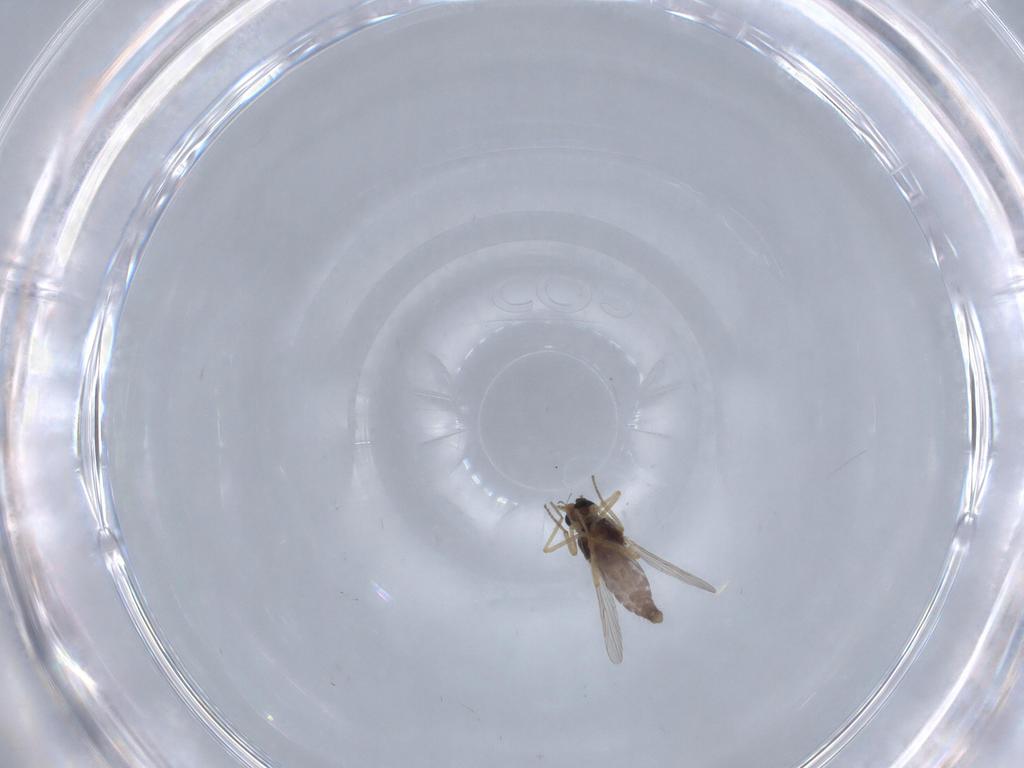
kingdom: Animalia
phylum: Arthropoda
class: Insecta
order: Diptera
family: Ceratopogonidae
